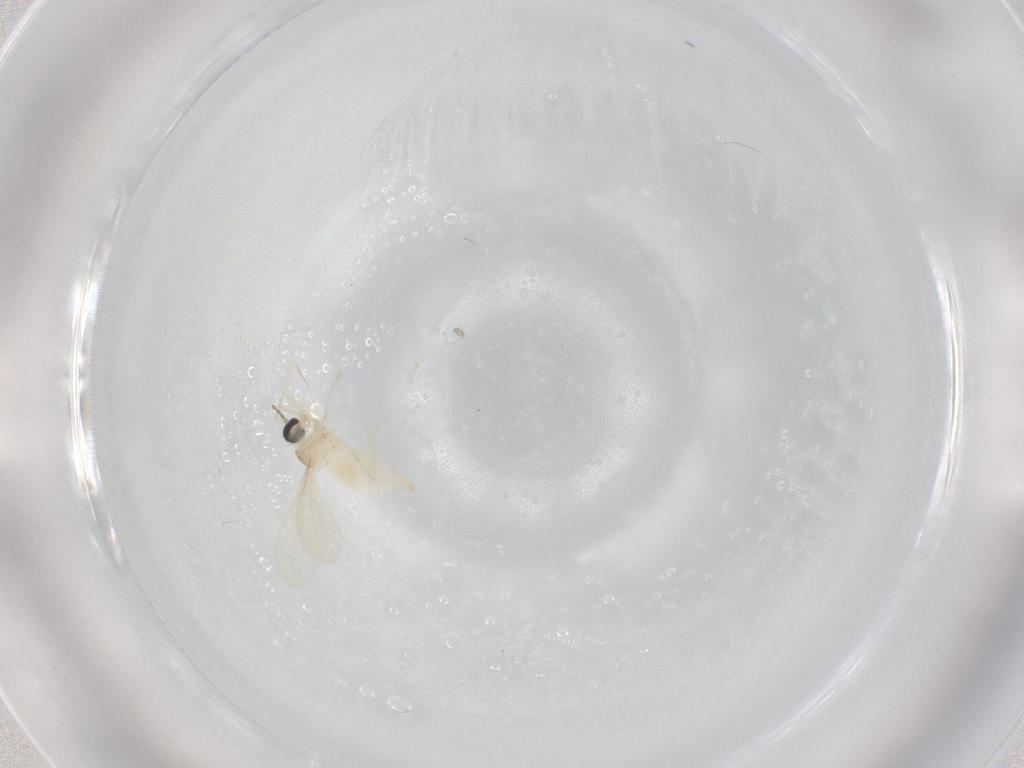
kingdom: Animalia
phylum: Arthropoda
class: Insecta
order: Diptera
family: Cecidomyiidae
